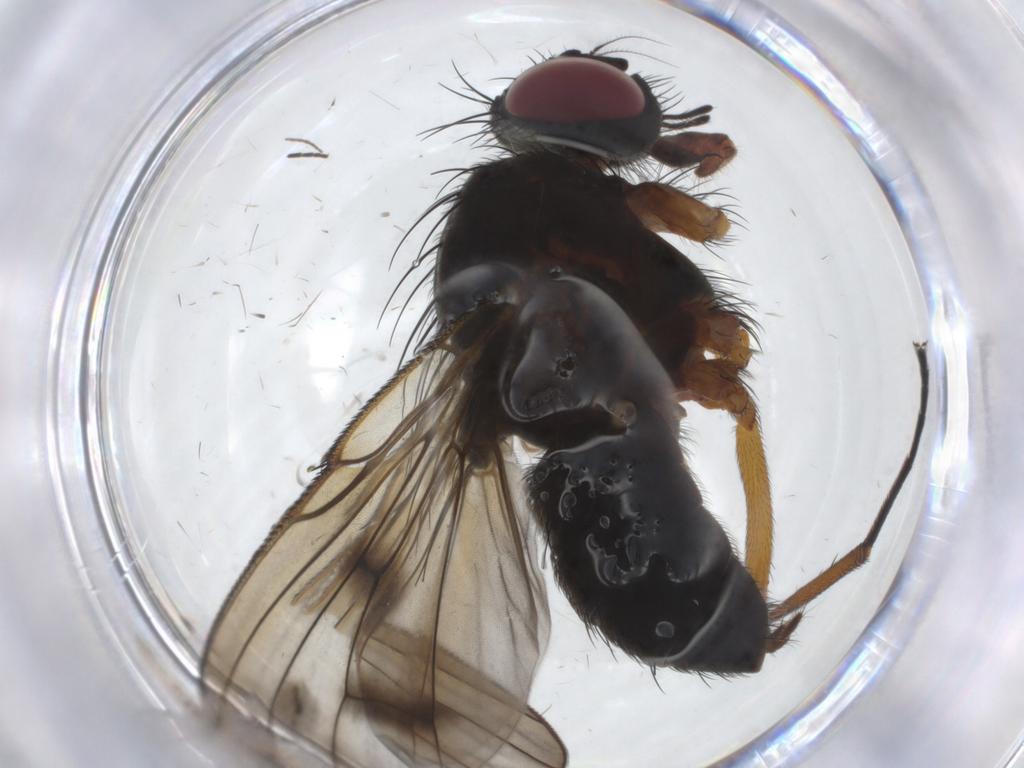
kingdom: Animalia
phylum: Arthropoda
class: Insecta
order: Diptera
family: Muscidae
